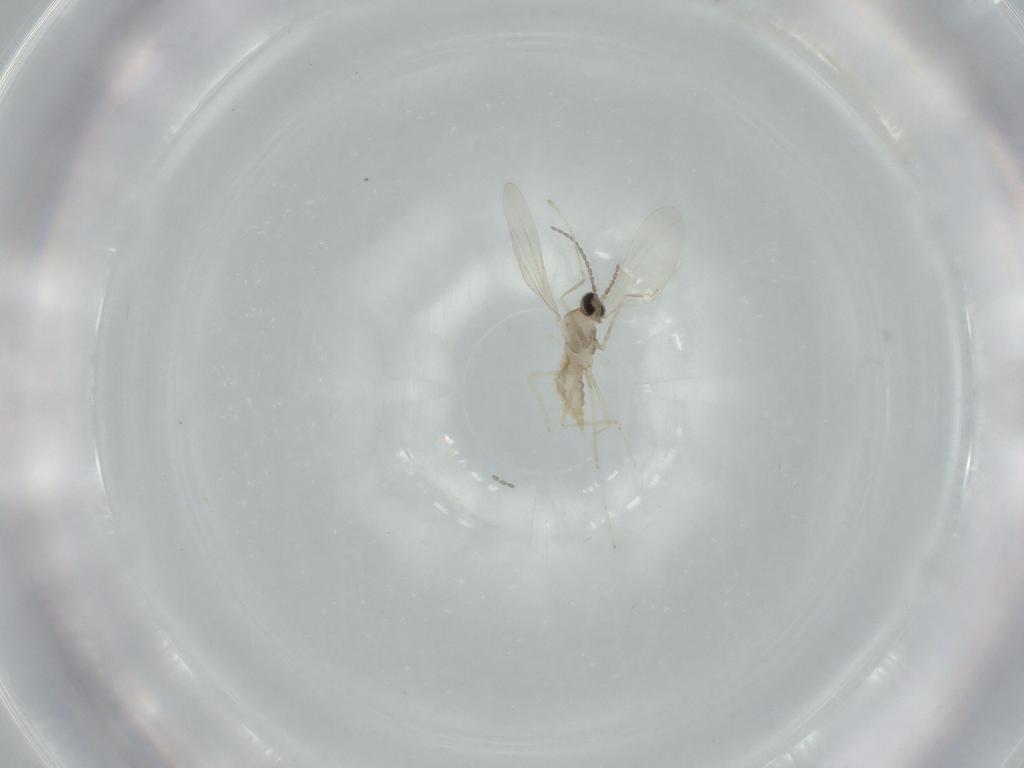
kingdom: Animalia
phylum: Arthropoda
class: Insecta
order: Diptera
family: Cecidomyiidae
